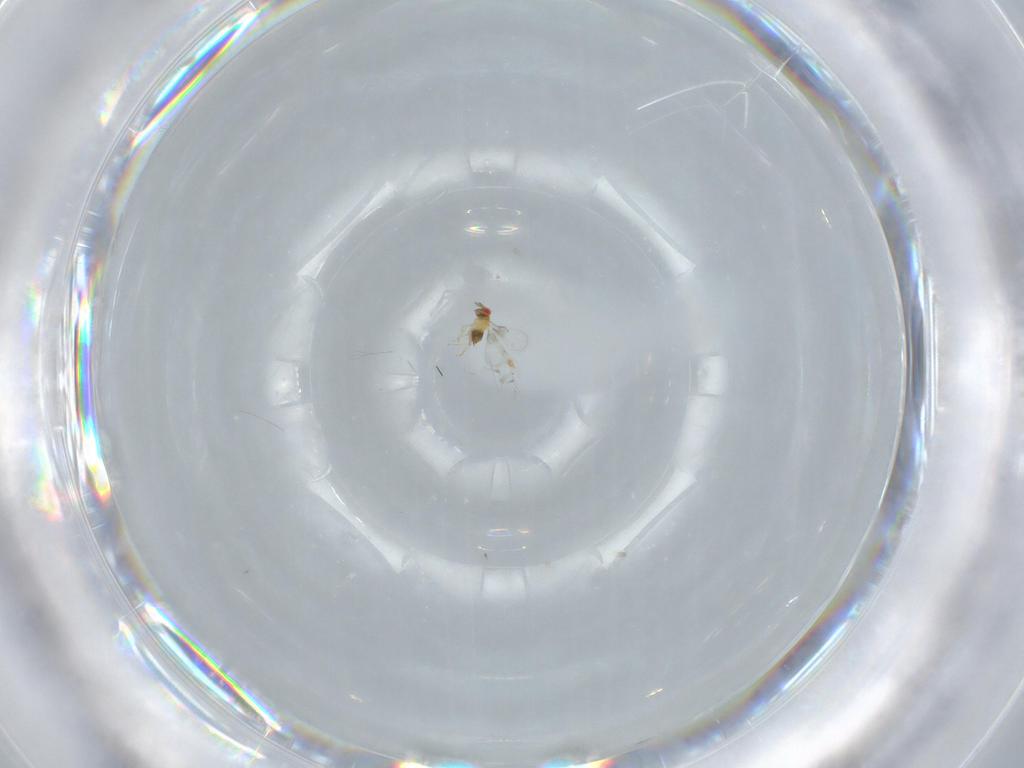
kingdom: Animalia
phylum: Arthropoda
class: Insecta
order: Hymenoptera
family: Trichogrammatidae
